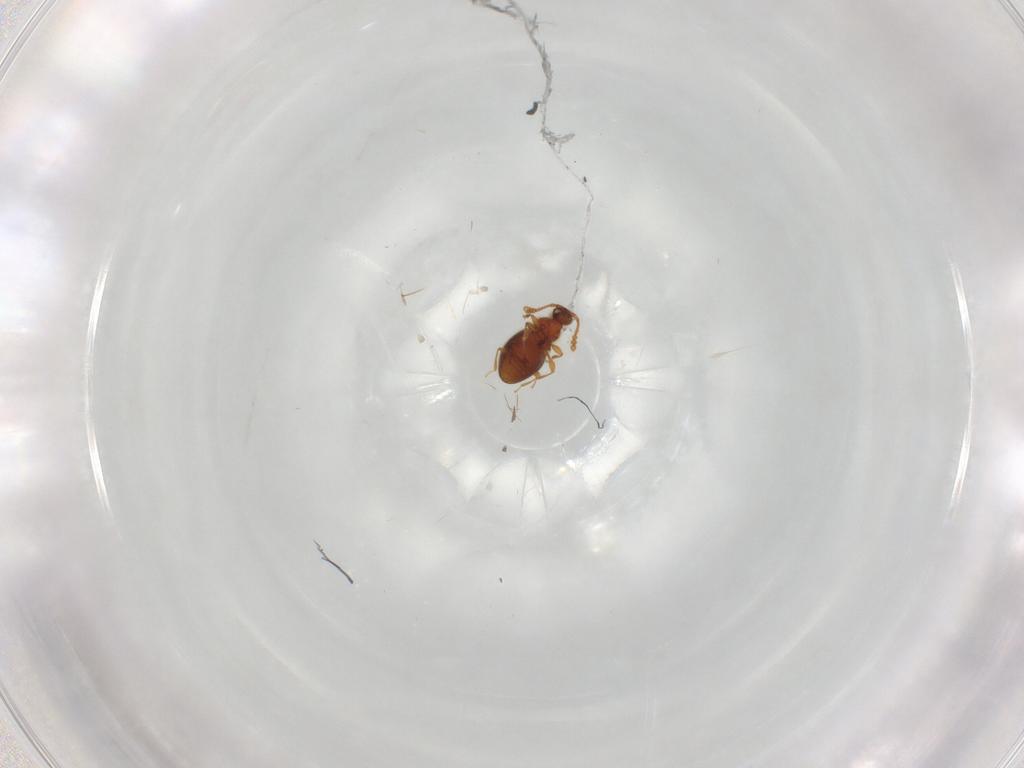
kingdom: Animalia
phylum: Arthropoda
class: Insecta
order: Coleoptera
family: Staphylinidae
